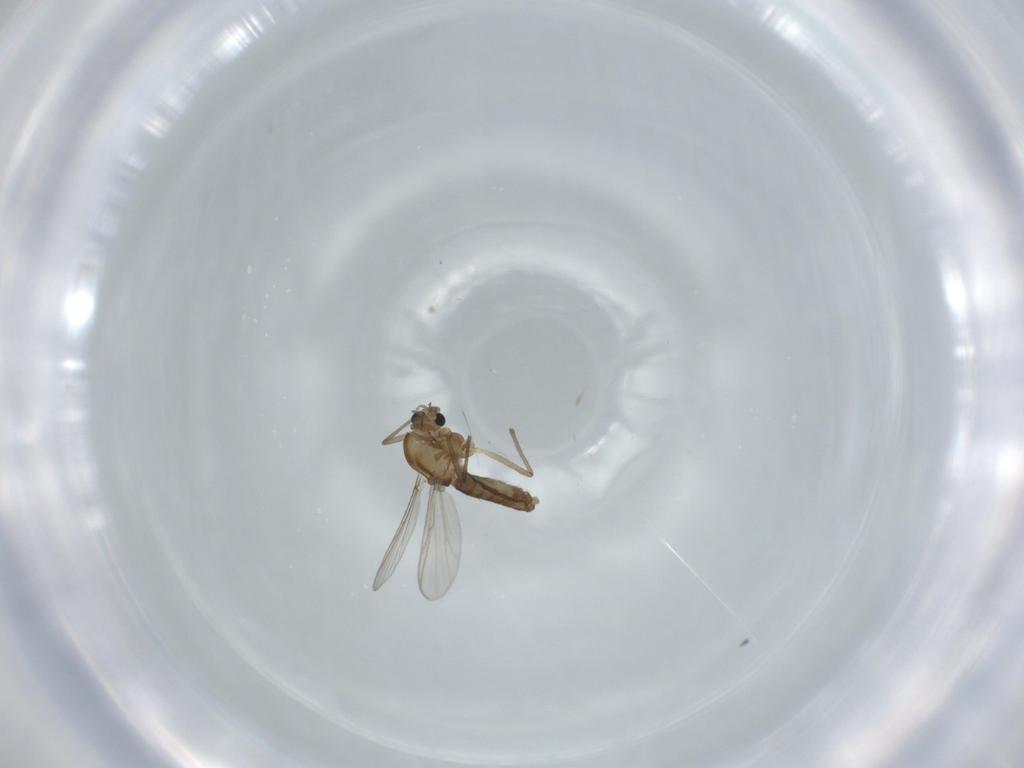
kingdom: Animalia
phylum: Arthropoda
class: Insecta
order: Diptera
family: Chironomidae
